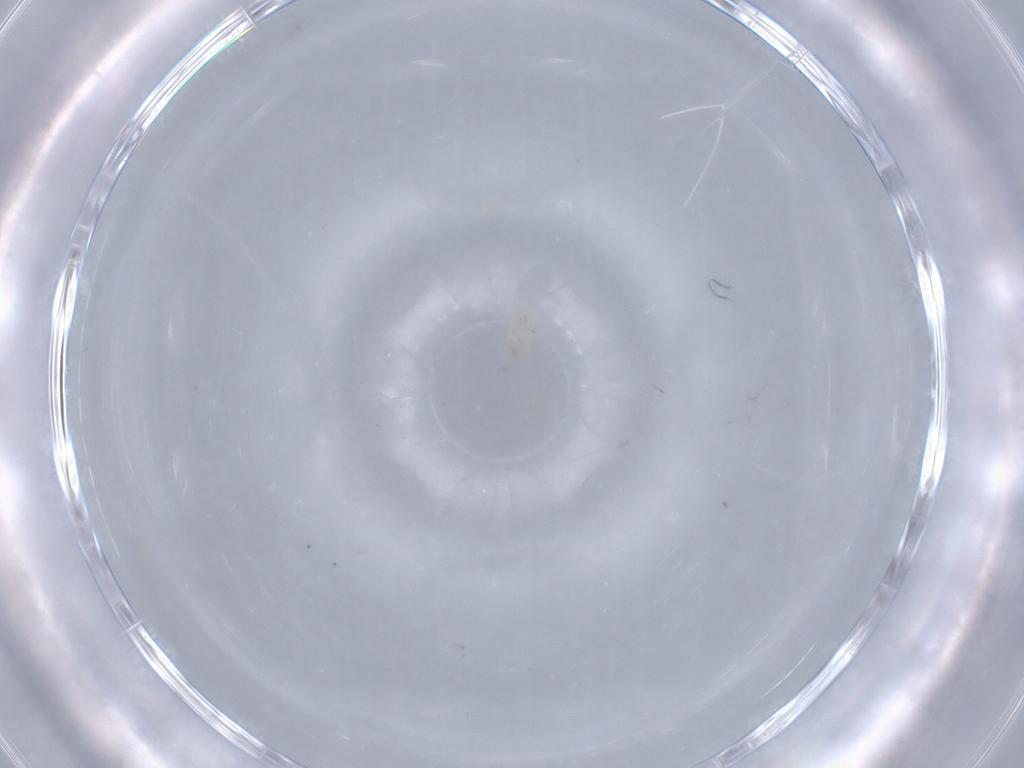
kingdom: Animalia
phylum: Arthropoda
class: Arachnida
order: Trombidiformes
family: Erythraeidae
